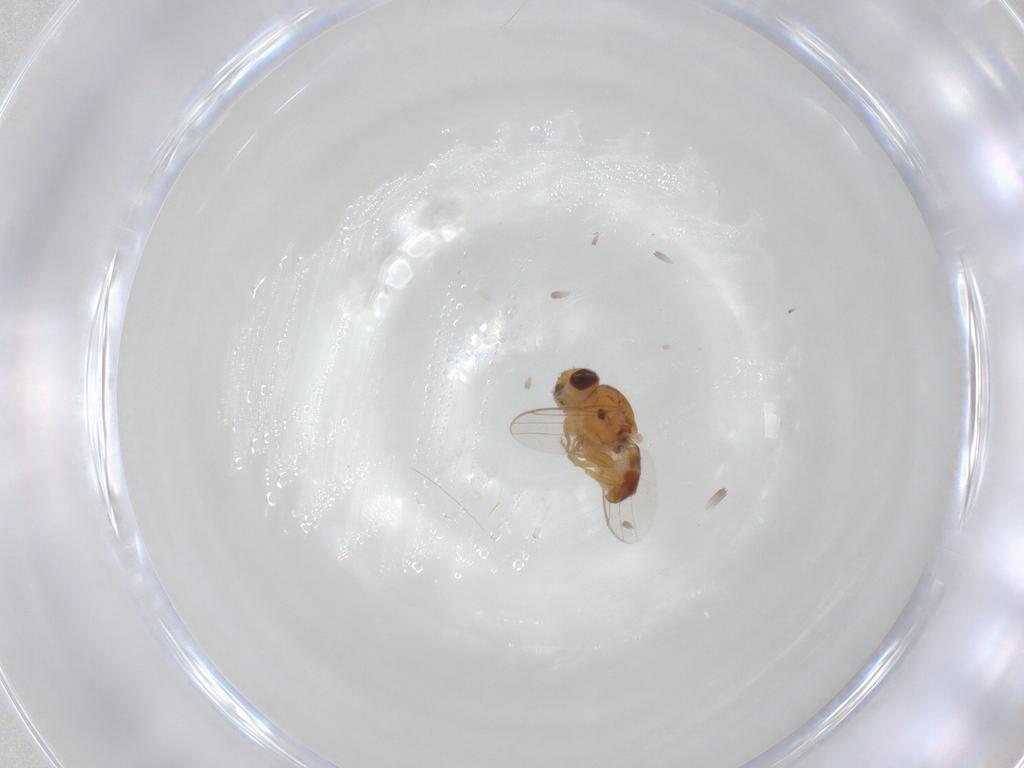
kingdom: Animalia
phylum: Arthropoda
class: Insecta
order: Diptera
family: Chloropidae
